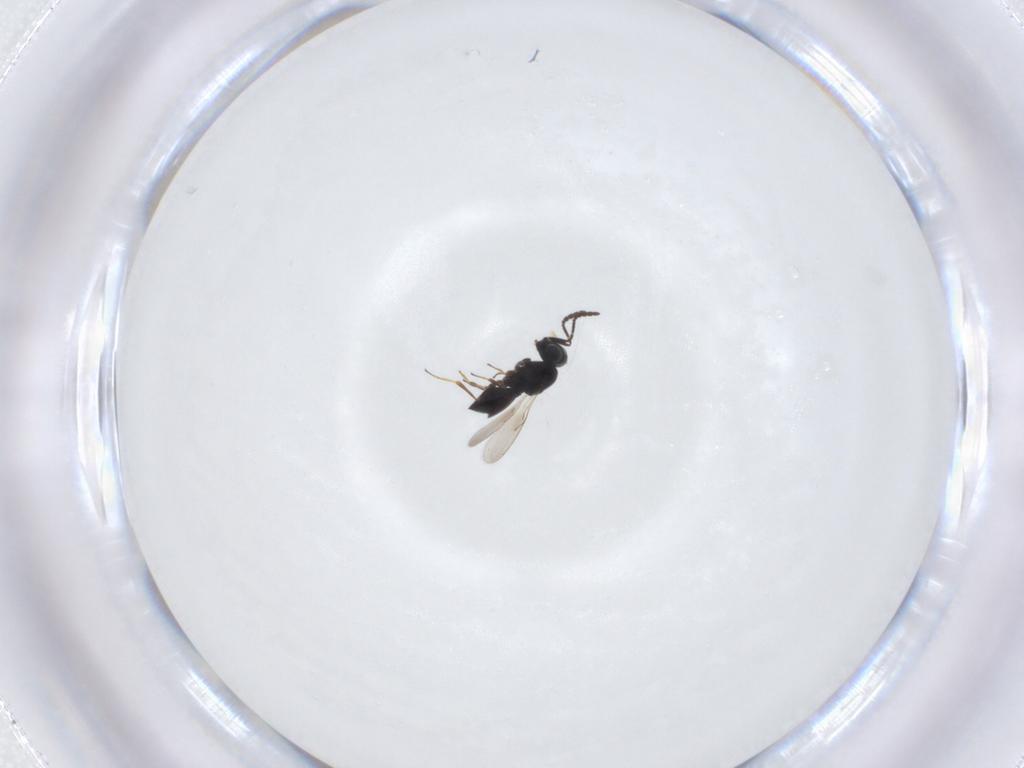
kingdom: Animalia
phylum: Arthropoda
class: Insecta
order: Hymenoptera
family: Scelionidae
